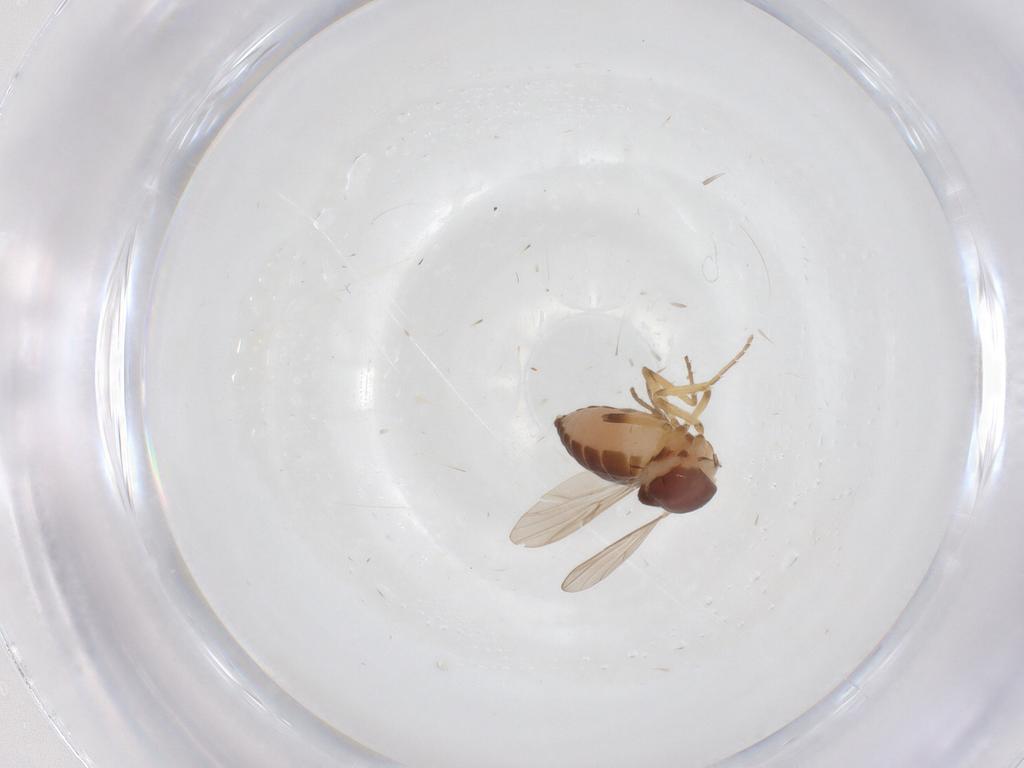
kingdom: Animalia
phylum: Arthropoda
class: Insecta
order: Diptera
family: Ceratopogonidae
